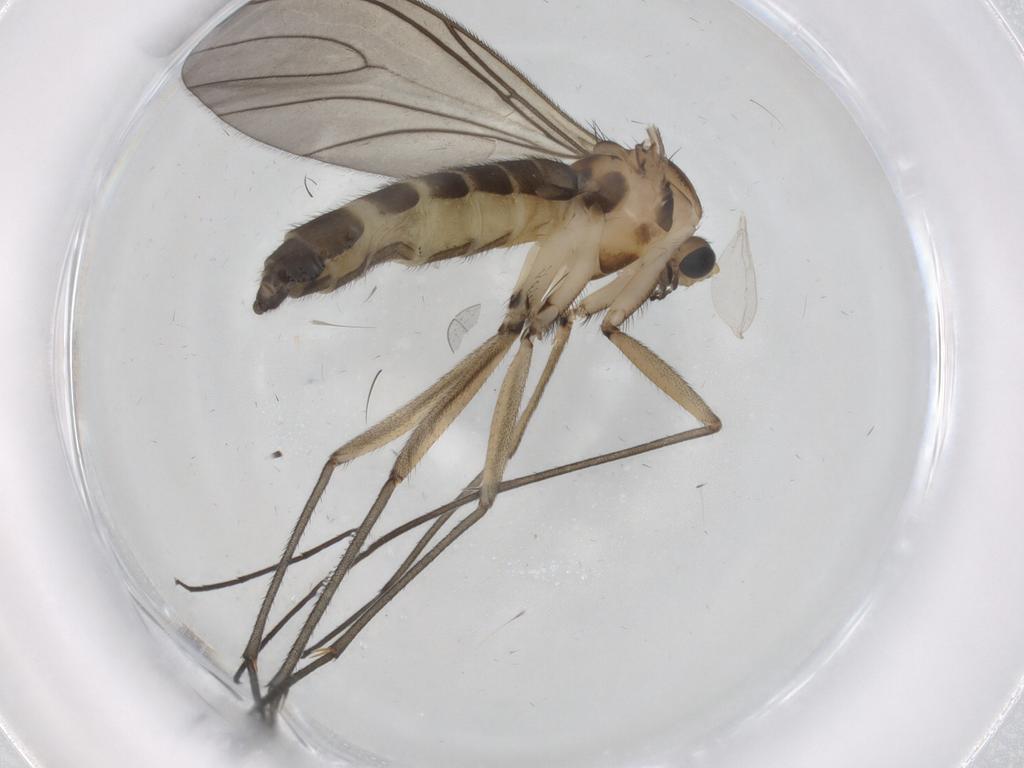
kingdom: Animalia
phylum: Arthropoda
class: Insecta
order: Diptera
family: Sciaridae
